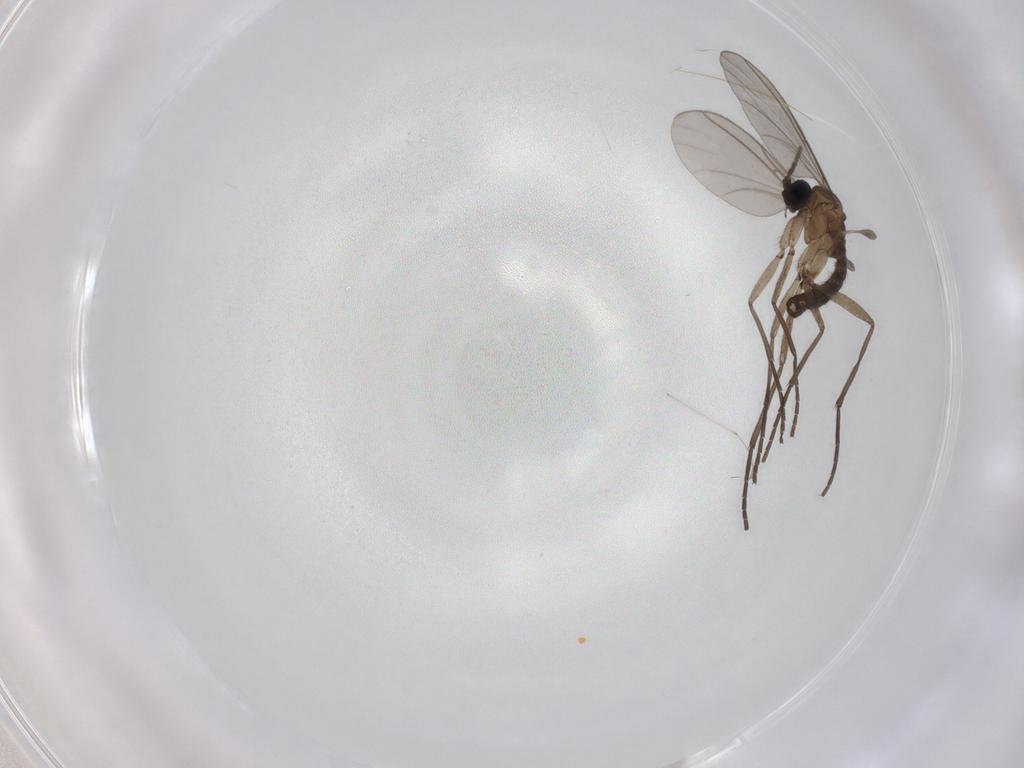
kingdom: Animalia
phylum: Arthropoda
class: Insecta
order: Diptera
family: Cecidomyiidae
